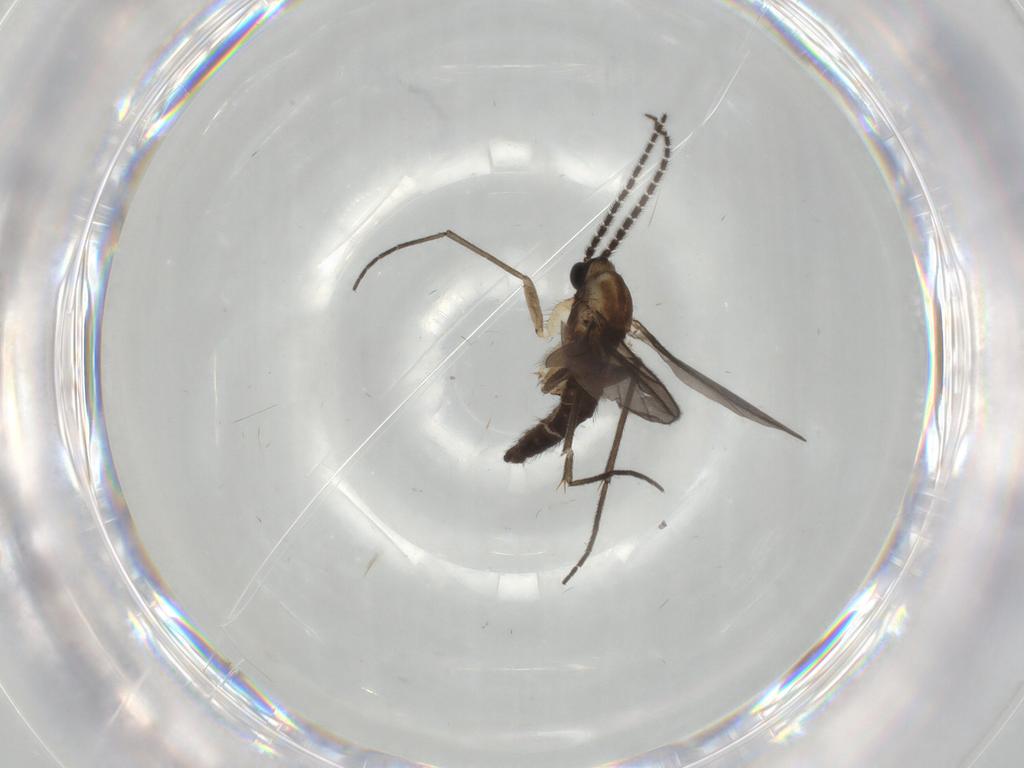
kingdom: Animalia
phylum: Arthropoda
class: Insecta
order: Diptera
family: Sciaridae
